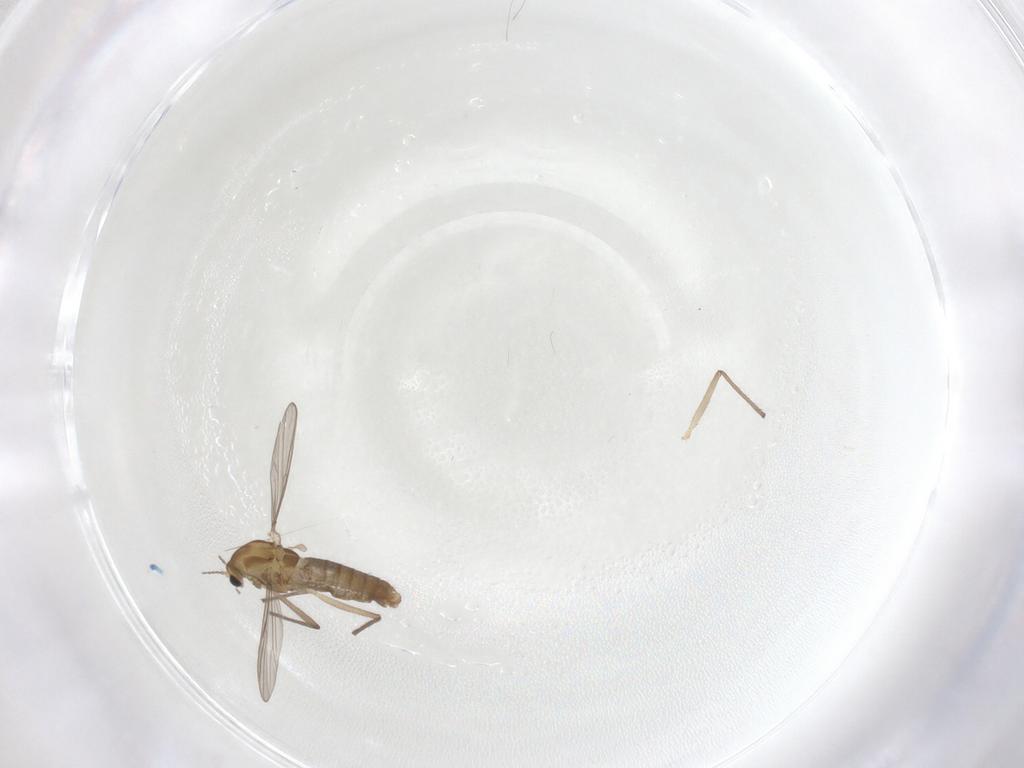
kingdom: Animalia
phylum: Arthropoda
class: Insecta
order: Diptera
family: Chironomidae
